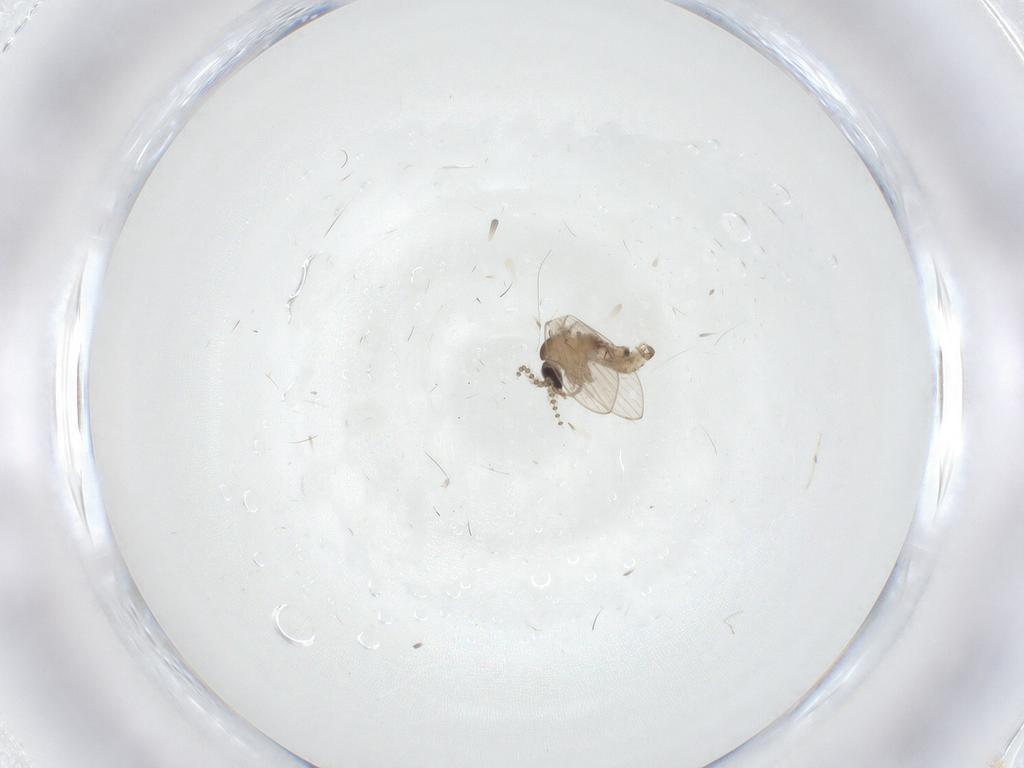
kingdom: Animalia
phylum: Arthropoda
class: Insecta
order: Diptera
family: Psychodidae
